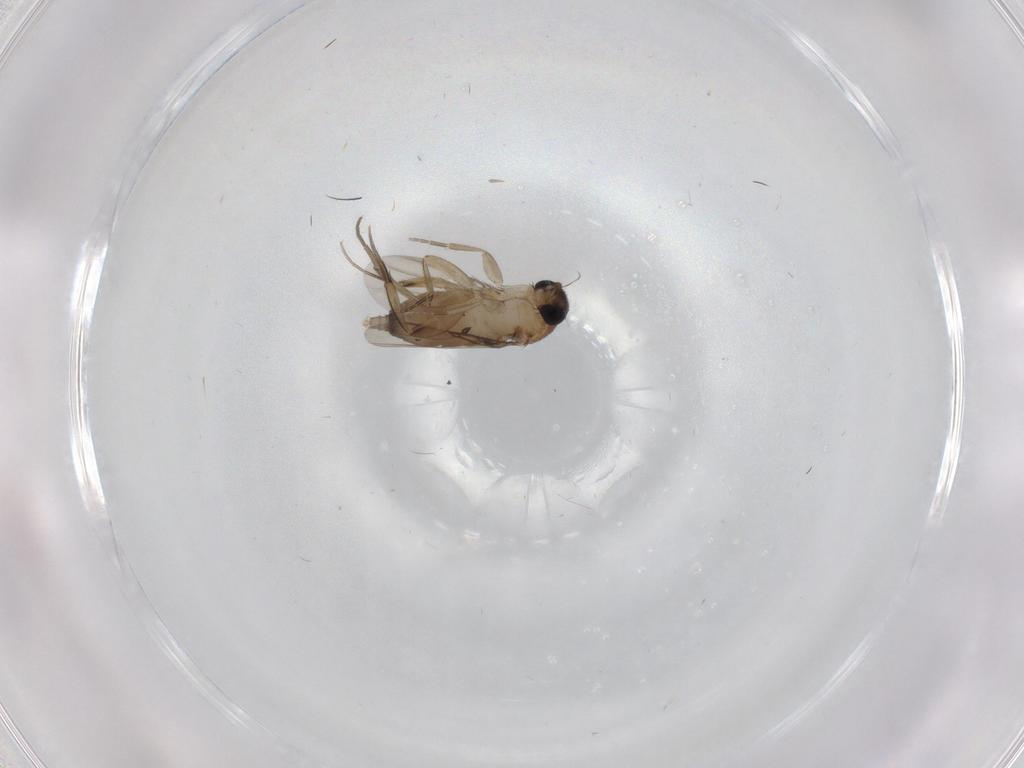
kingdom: Animalia
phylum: Arthropoda
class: Insecta
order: Diptera
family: Phoridae
